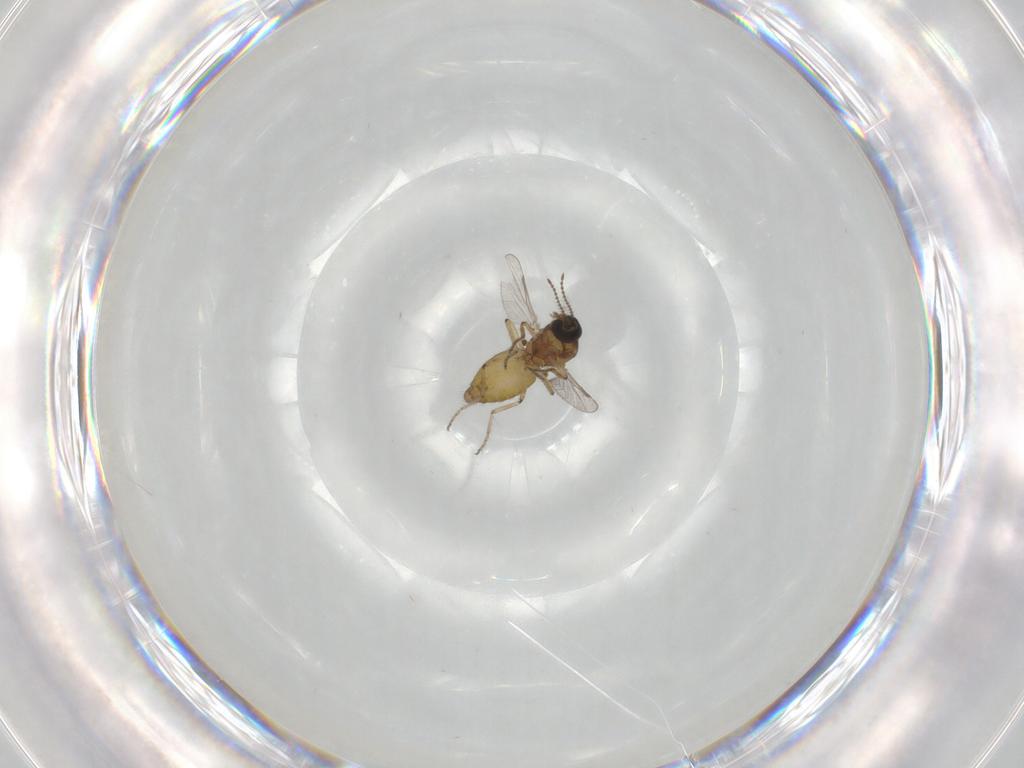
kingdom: Animalia
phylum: Arthropoda
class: Insecta
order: Diptera
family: Ceratopogonidae
